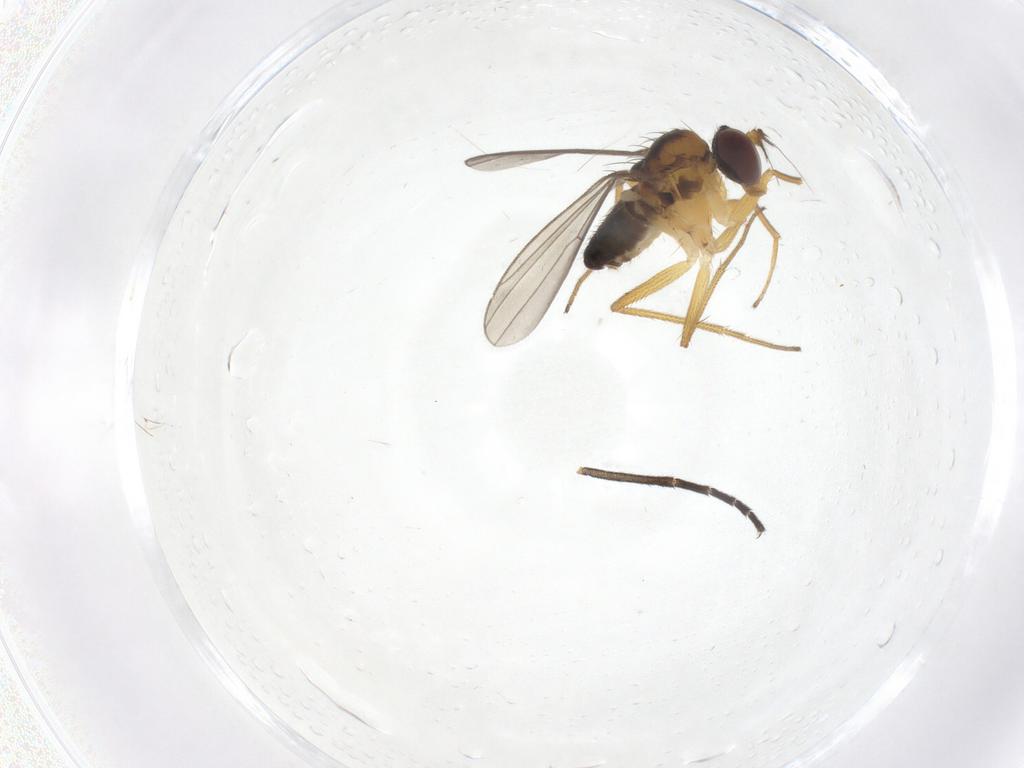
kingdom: Animalia
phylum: Arthropoda
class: Insecta
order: Diptera
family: Dolichopodidae
